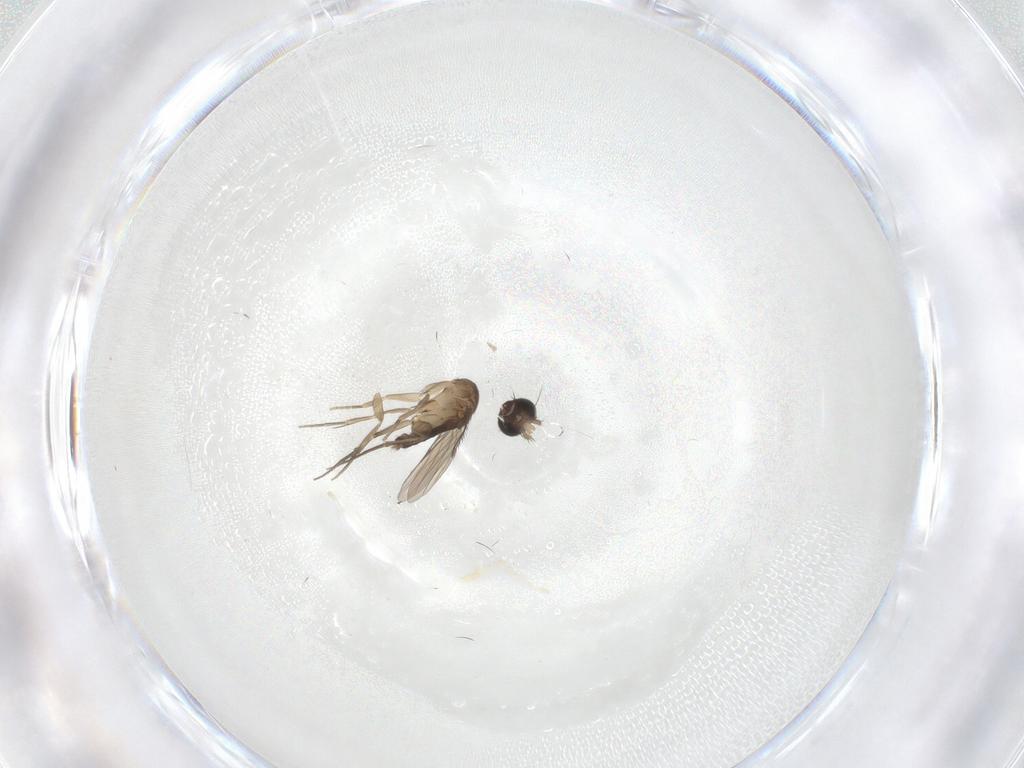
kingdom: Animalia
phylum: Arthropoda
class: Insecta
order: Diptera
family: Phoridae
